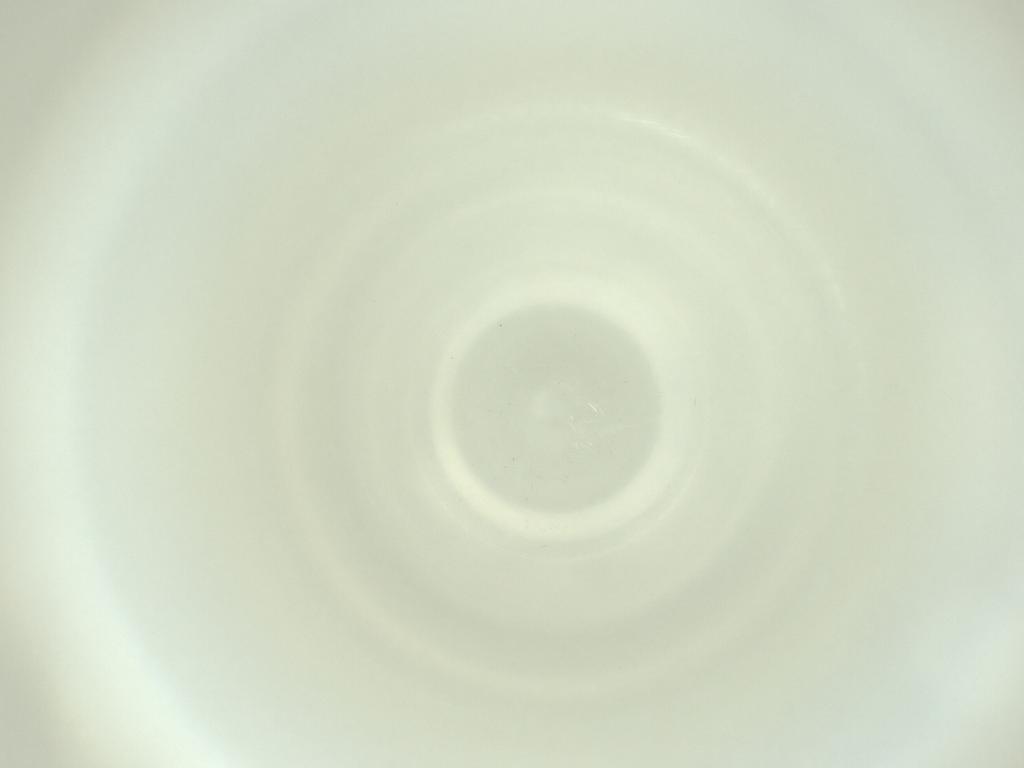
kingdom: Animalia
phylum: Arthropoda
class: Insecta
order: Diptera
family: Cecidomyiidae
